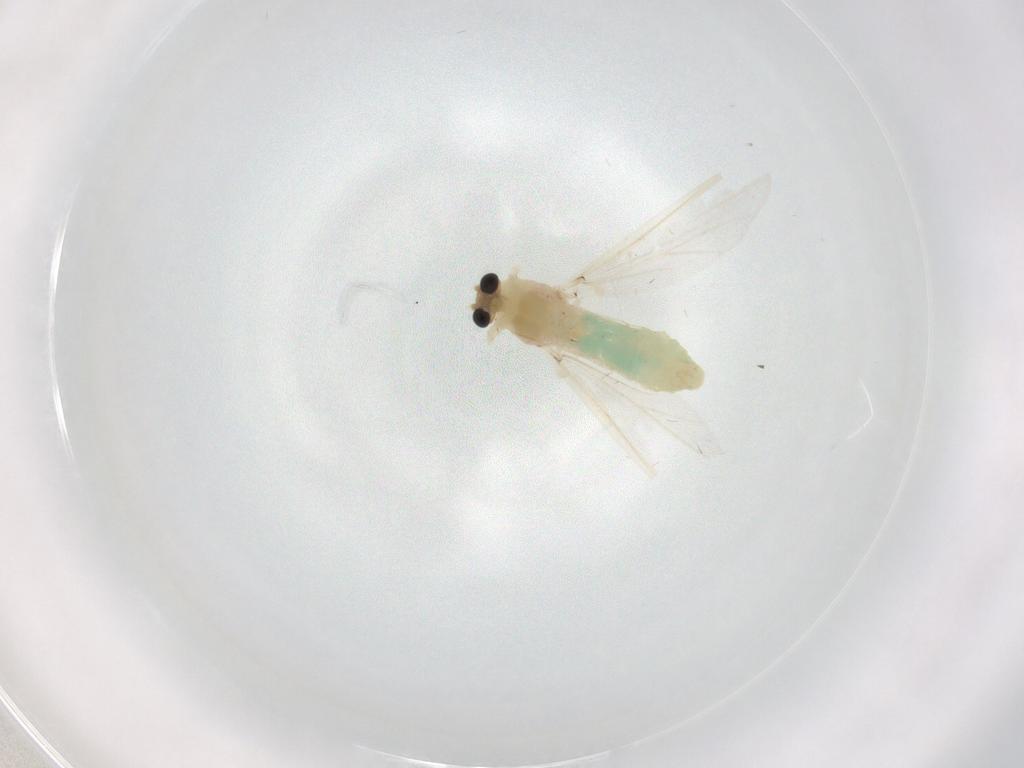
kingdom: Animalia
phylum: Arthropoda
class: Insecta
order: Diptera
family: Chironomidae
